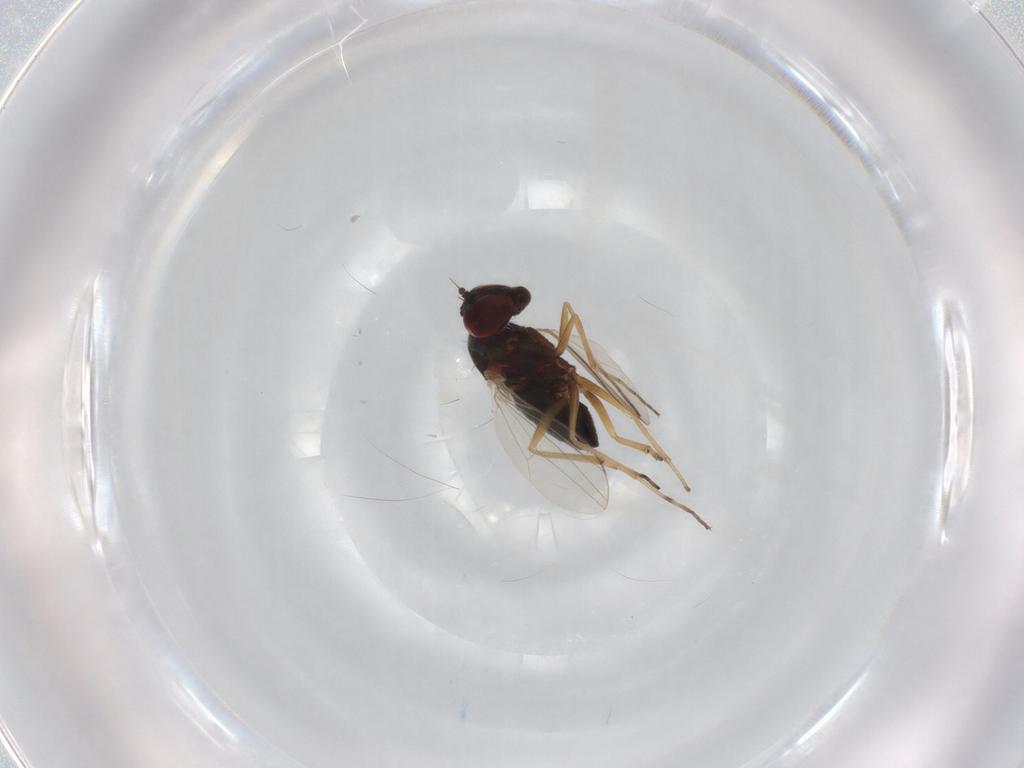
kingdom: Animalia
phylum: Arthropoda
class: Insecta
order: Diptera
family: Dolichopodidae
